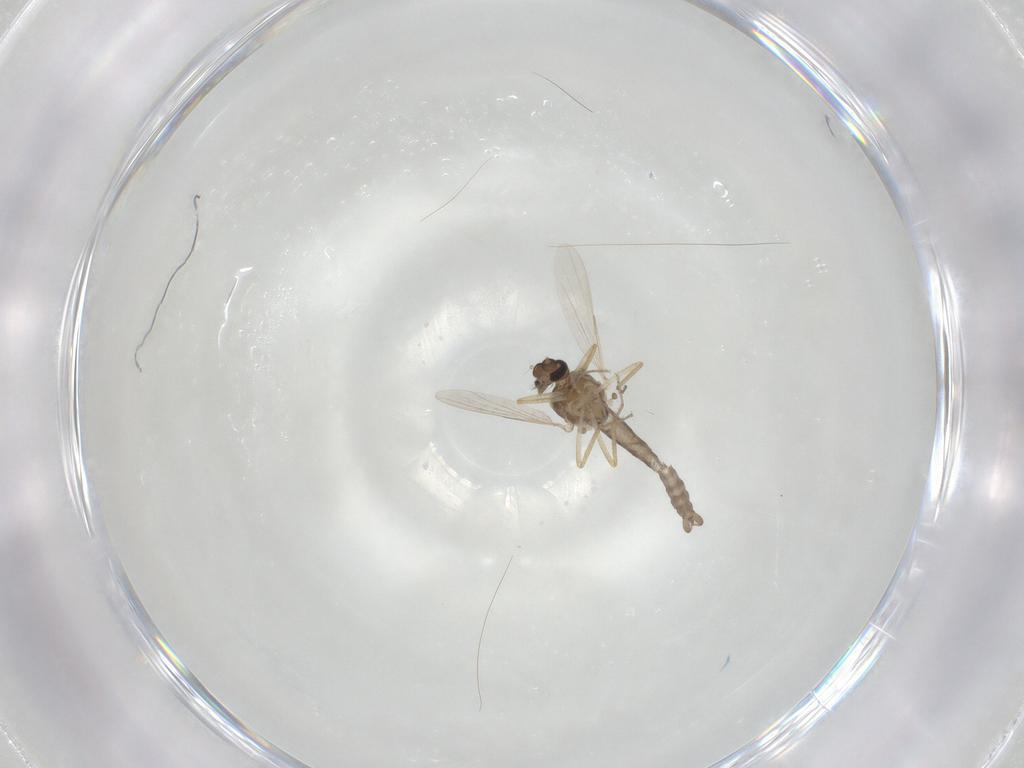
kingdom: Animalia
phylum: Arthropoda
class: Insecta
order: Diptera
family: Ceratopogonidae
